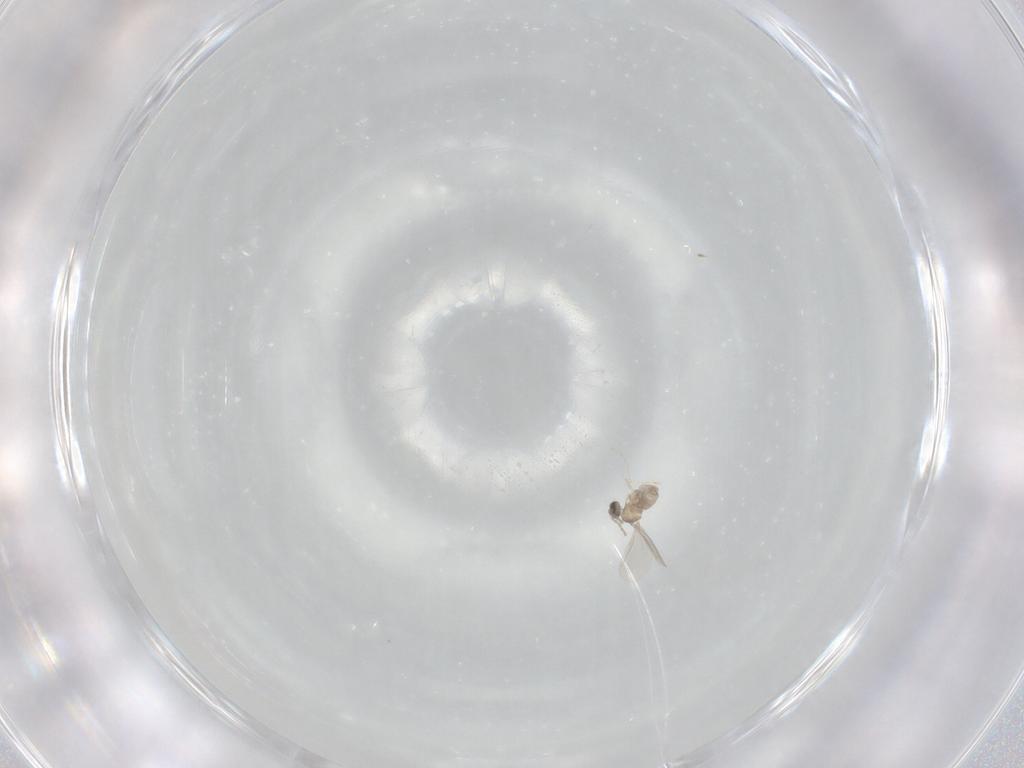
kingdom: Animalia
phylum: Arthropoda
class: Insecta
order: Diptera
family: Cecidomyiidae
